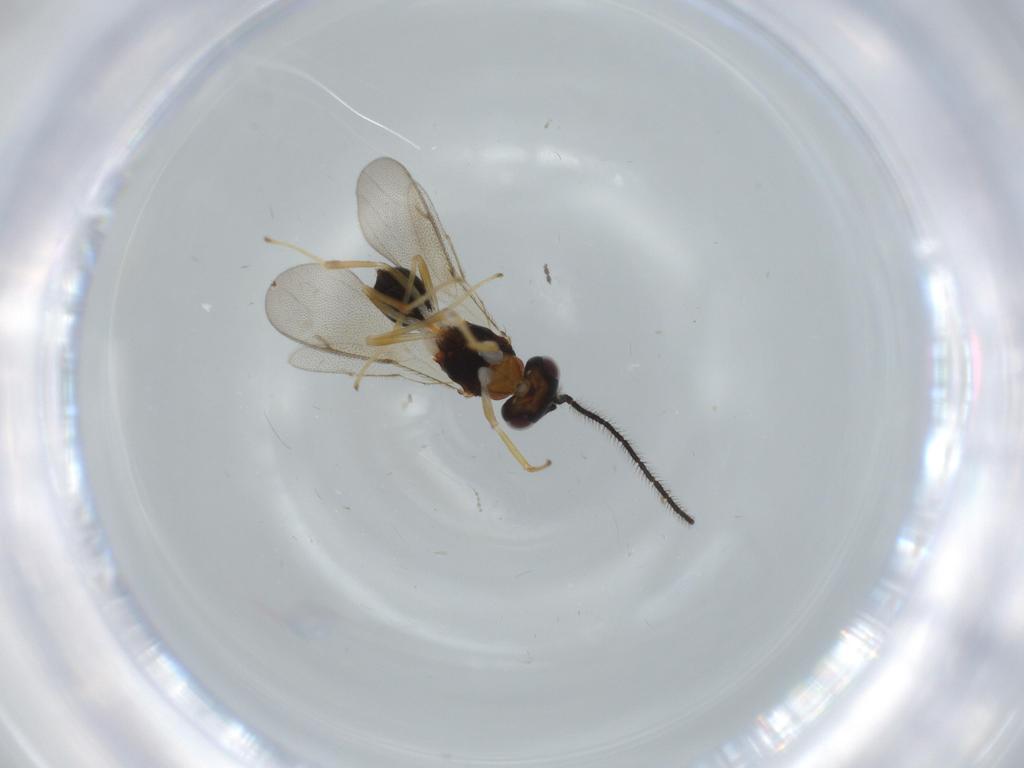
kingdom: Animalia
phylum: Arthropoda
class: Insecta
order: Hymenoptera
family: Diparidae
